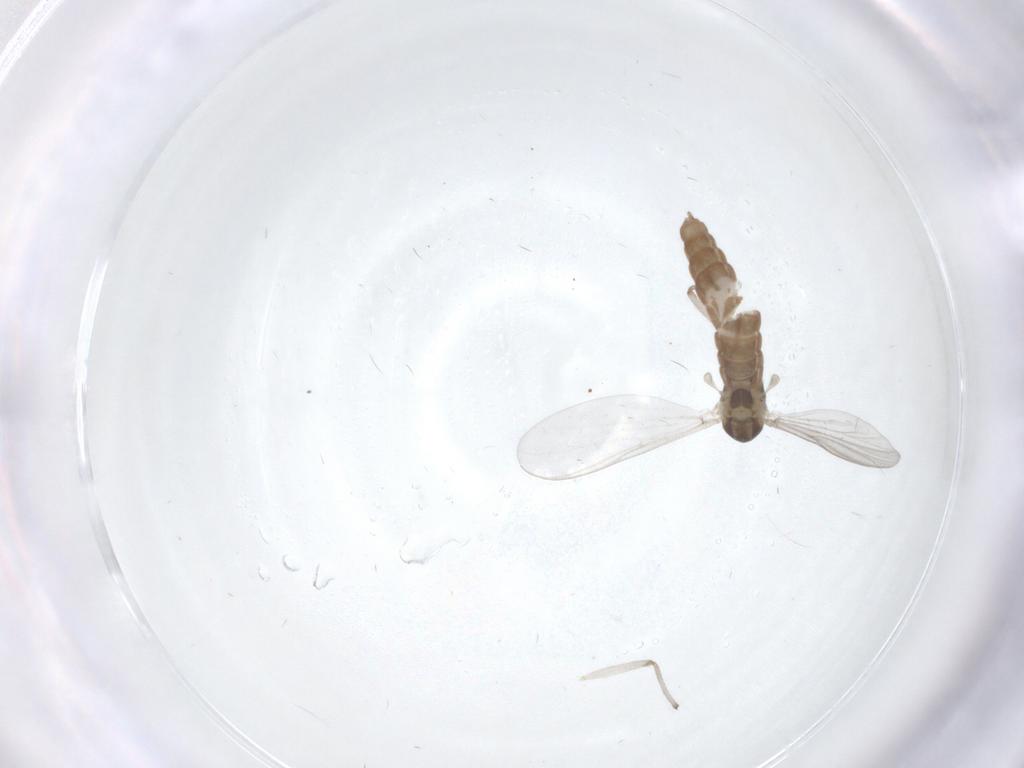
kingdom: Animalia
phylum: Arthropoda
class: Insecta
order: Diptera
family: Chironomidae
